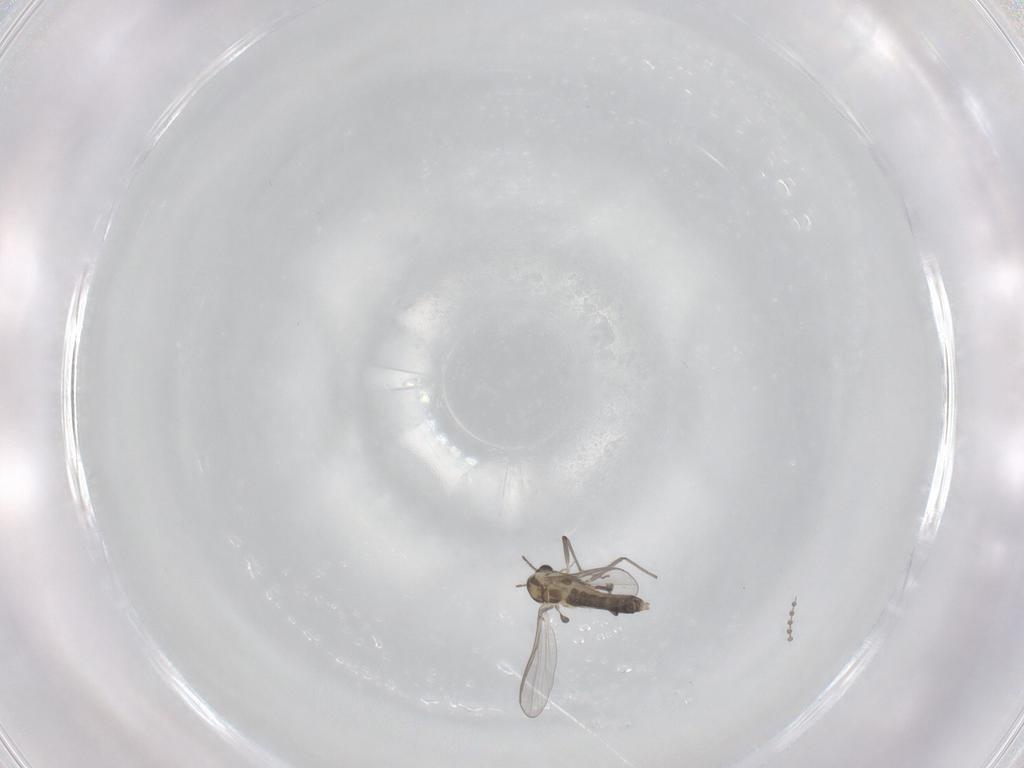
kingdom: Animalia
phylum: Arthropoda
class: Insecta
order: Diptera
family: Chironomidae
